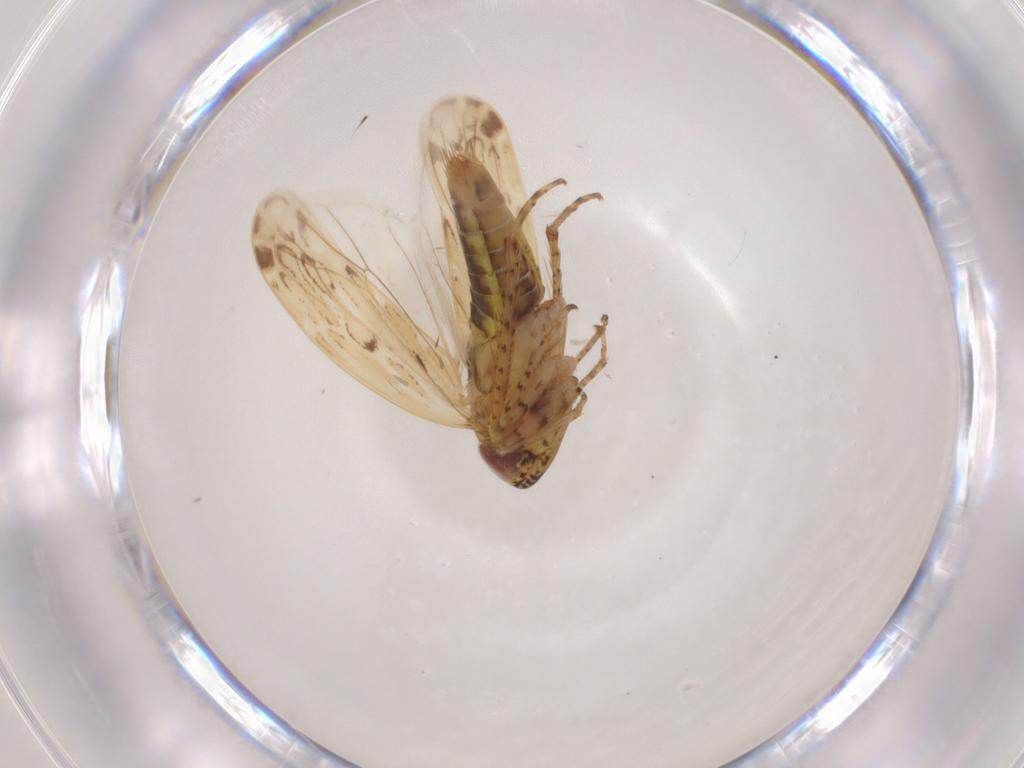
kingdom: Animalia
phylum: Arthropoda
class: Insecta
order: Hemiptera
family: Cicadellidae
